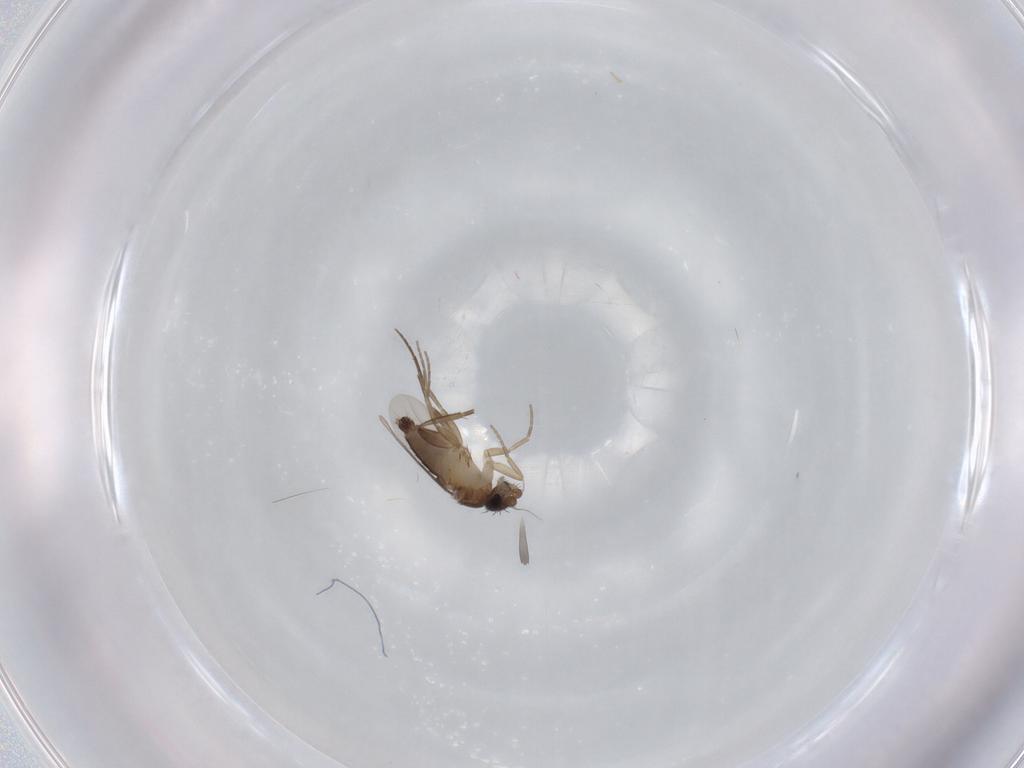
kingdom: Animalia
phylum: Arthropoda
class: Insecta
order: Diptera
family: Phoridae
